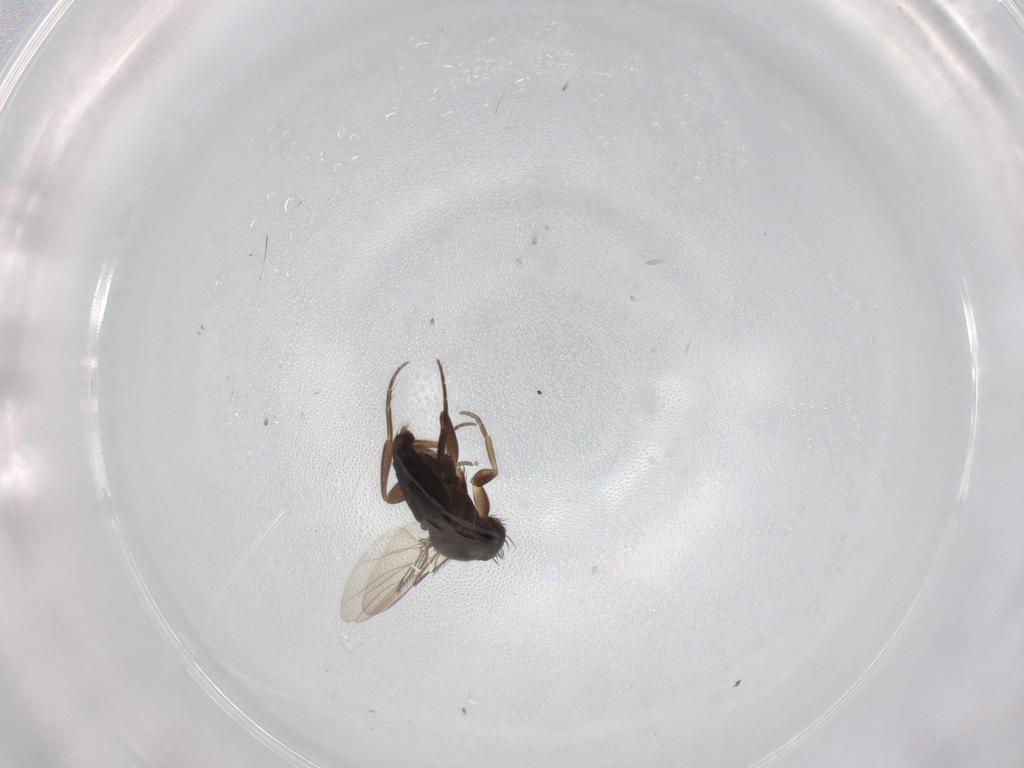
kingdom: Animalia
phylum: Arthropoda
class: Insecta
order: Diptera
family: Phoridae
